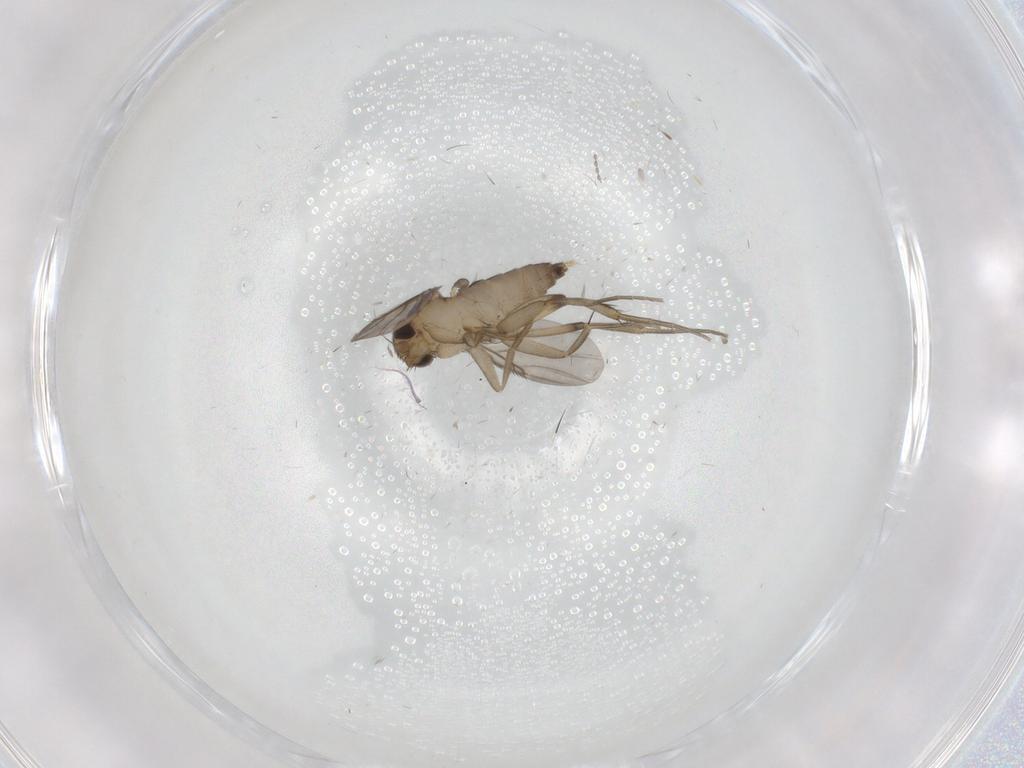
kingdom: Animalia
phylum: Arthropoda
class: Insecta
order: Diptera
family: Phoridae
